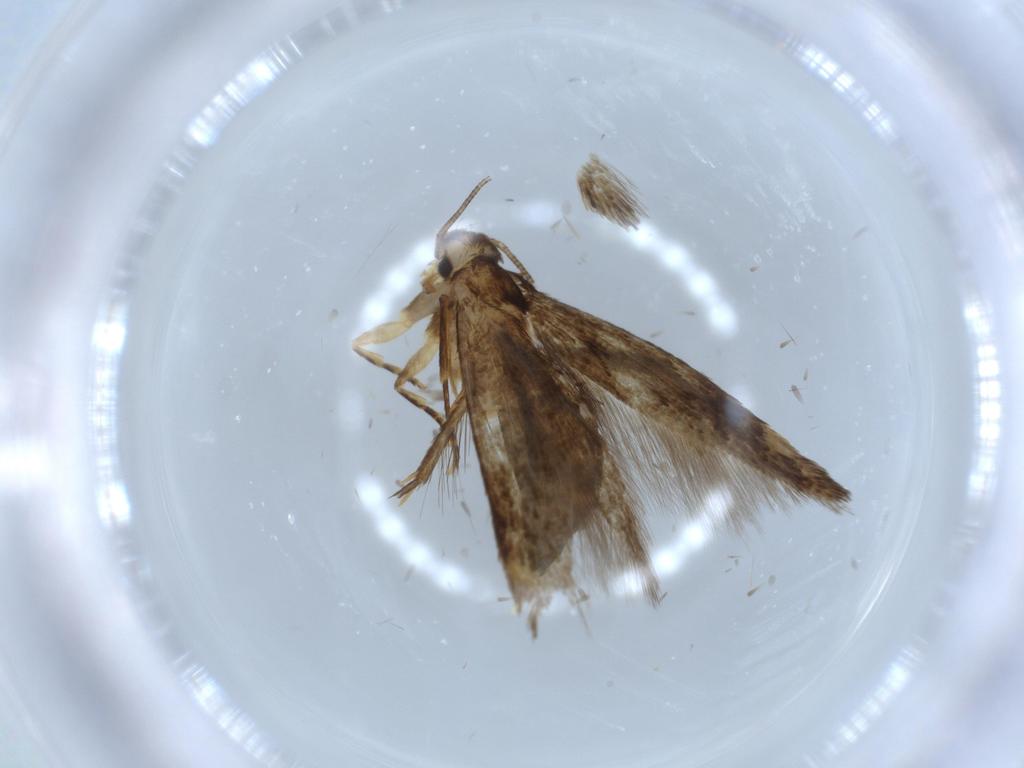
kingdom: Animalia
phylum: Arthropoda
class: Insecta
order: Lepidoptera
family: Tineidae
